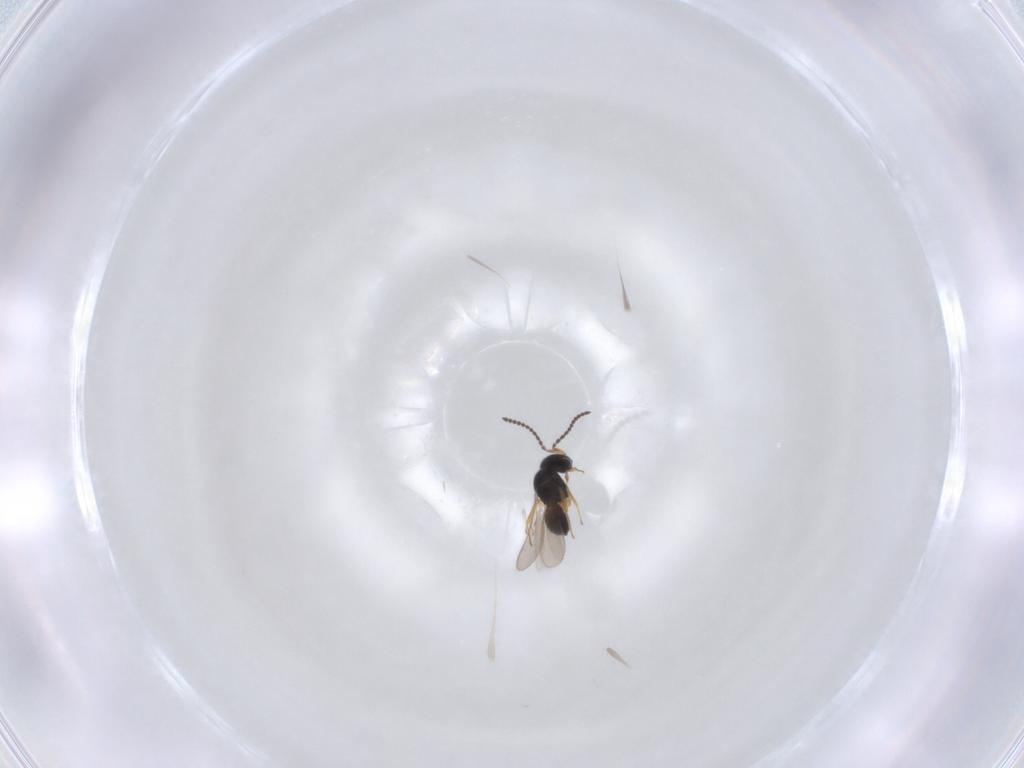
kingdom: Animalia
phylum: Arthropoda
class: Insecta
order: Hymenoptera
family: Scelionidae
